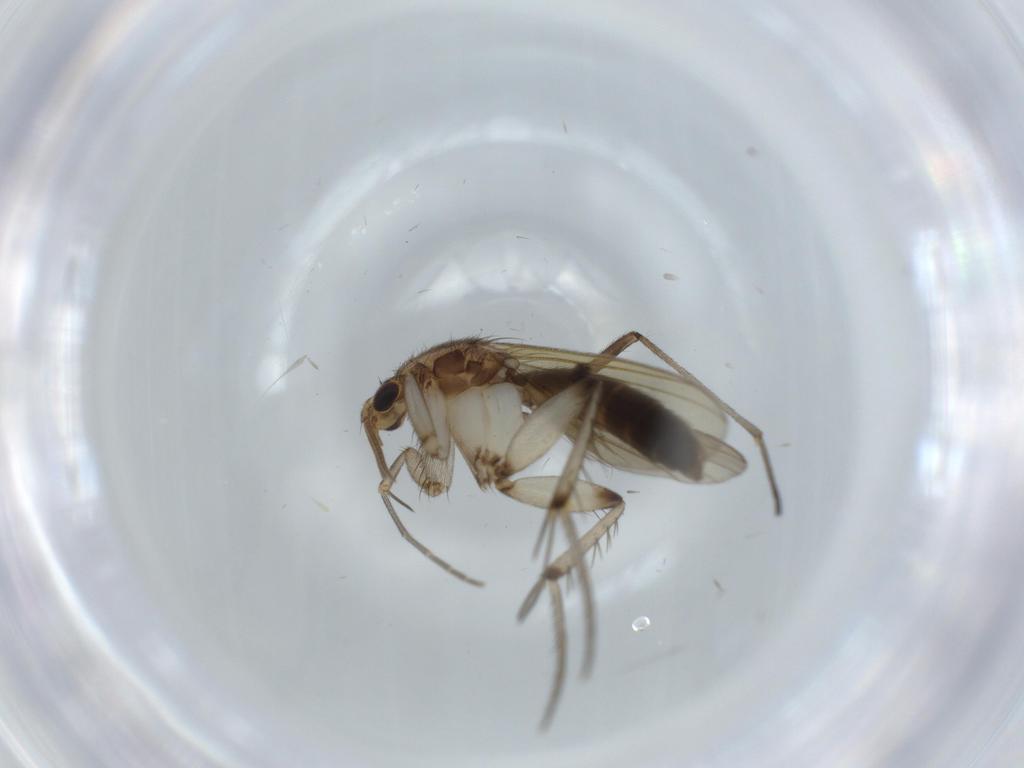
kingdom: Animalia
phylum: Arthropoda
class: Insecta
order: Diptera
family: Mycetophilidae
